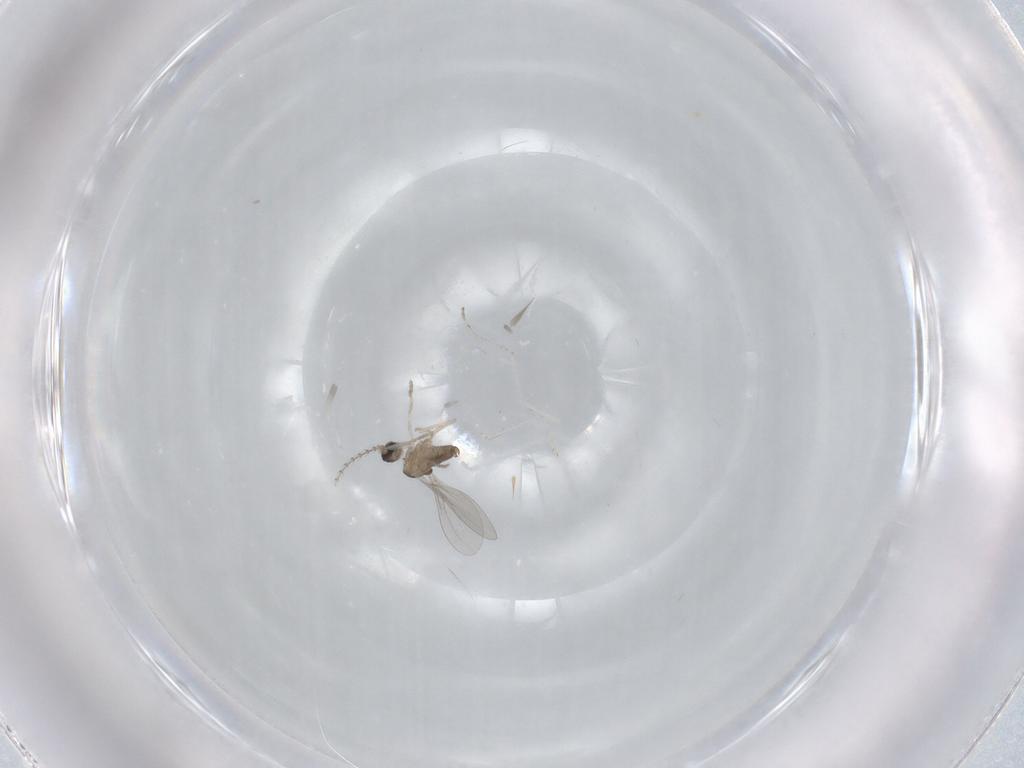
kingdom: Animalia
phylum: Arthropoda
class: Insecta
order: Diptera
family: Cecidomyiidae
